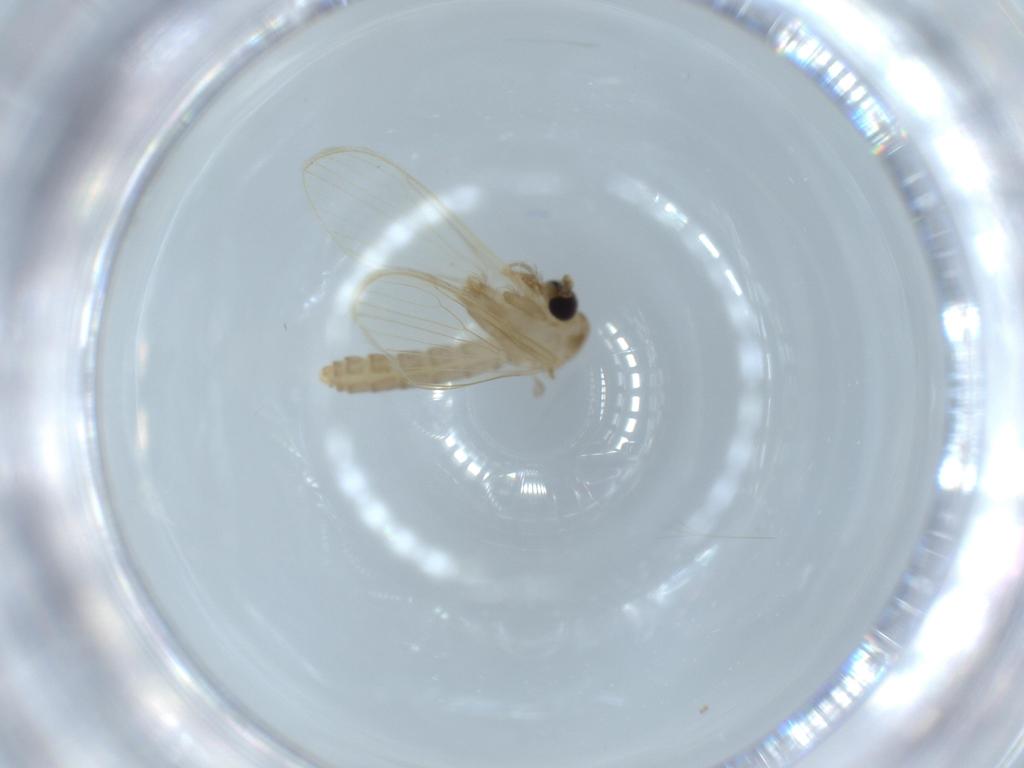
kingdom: Animalia
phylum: Arthropoda
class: Insecta
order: Diptera
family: Psychodidae
